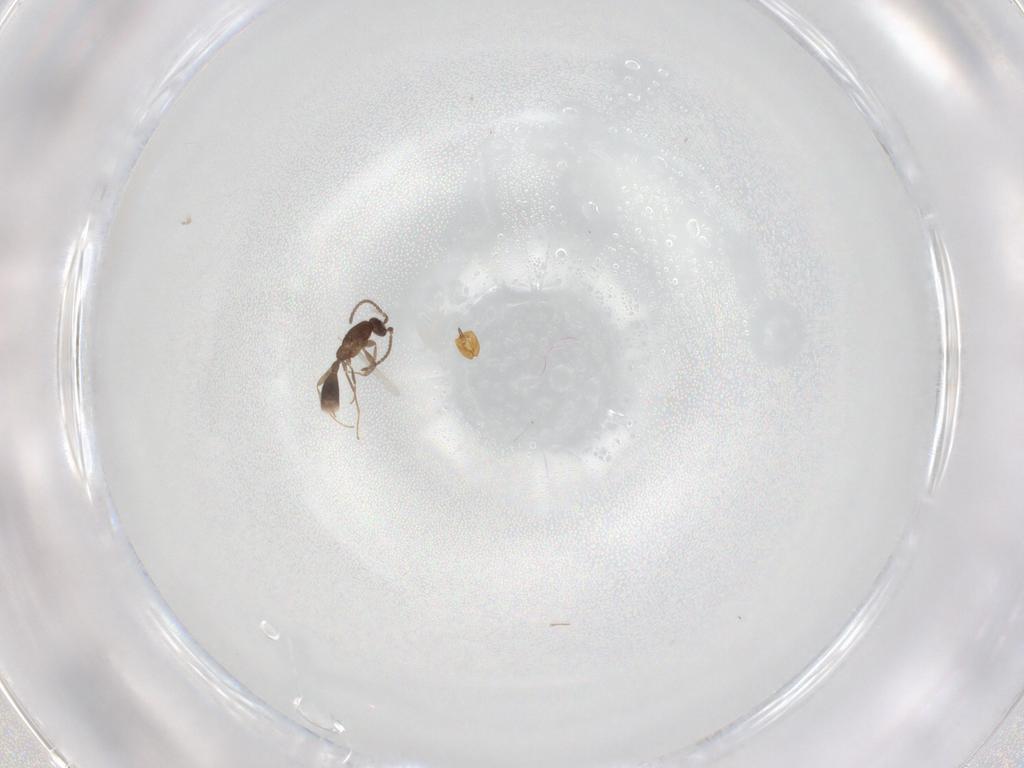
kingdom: Animalia
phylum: Arthropoda
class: Insecta
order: Hymenoptera
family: Formicidae
